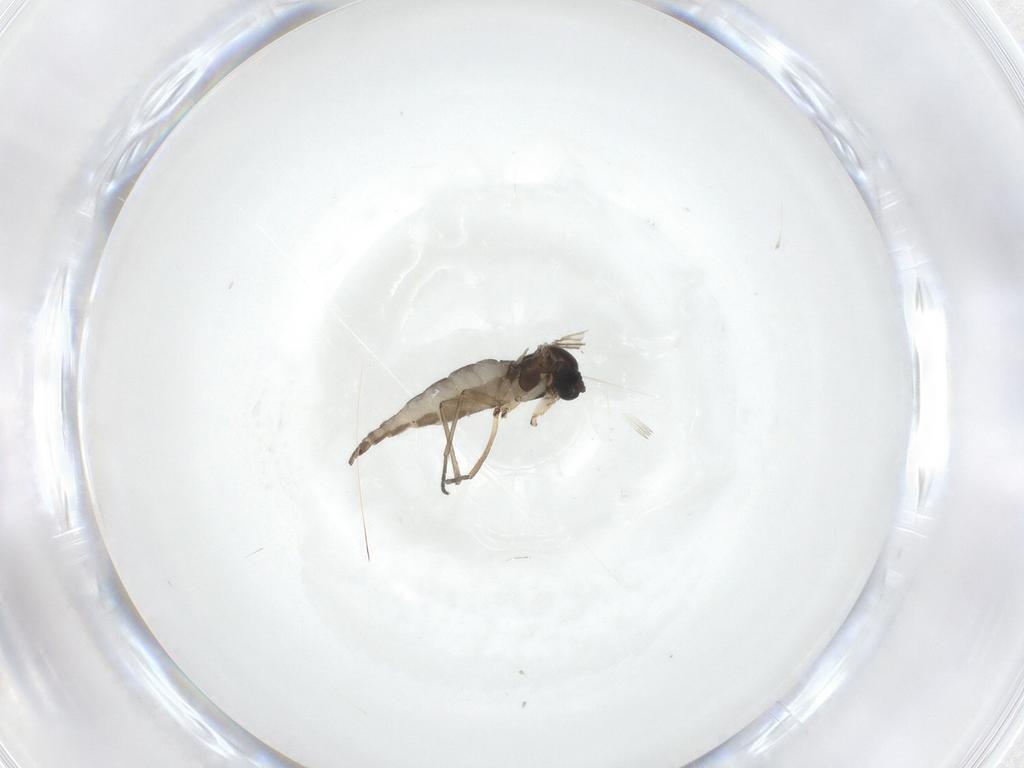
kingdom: Animalia
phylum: Arthropoda
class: Insecta
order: Diptera
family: Sciaridae
